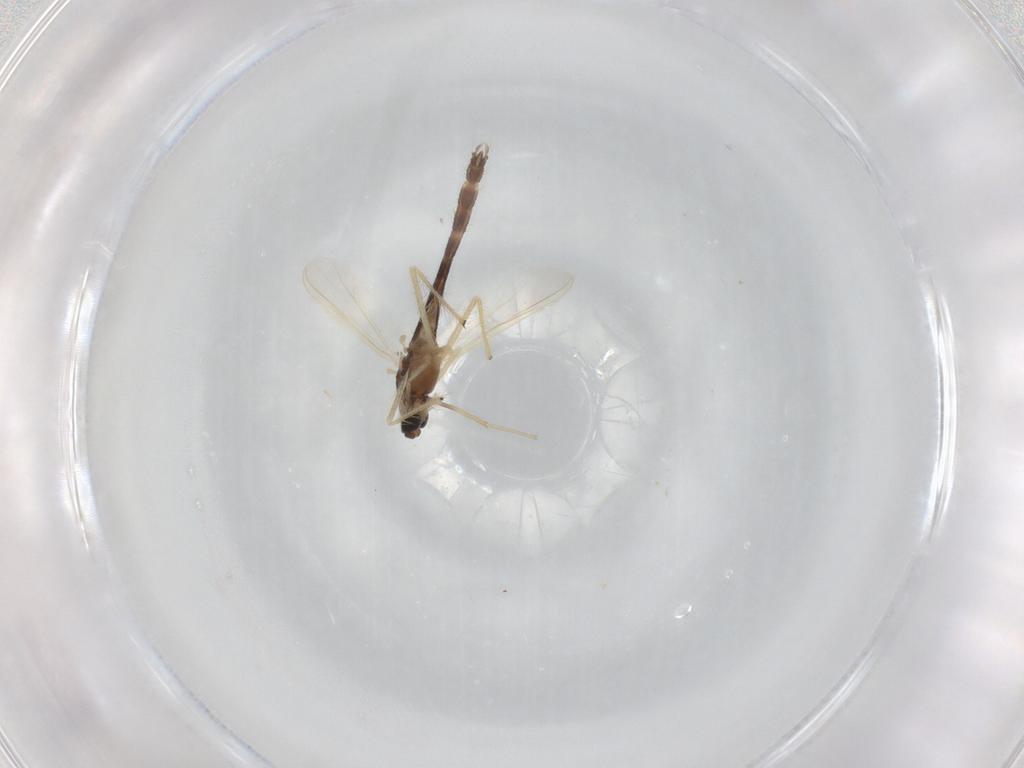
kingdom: Animalia
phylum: Arthropoda
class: Insecta
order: Diptera
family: Chironomidae
